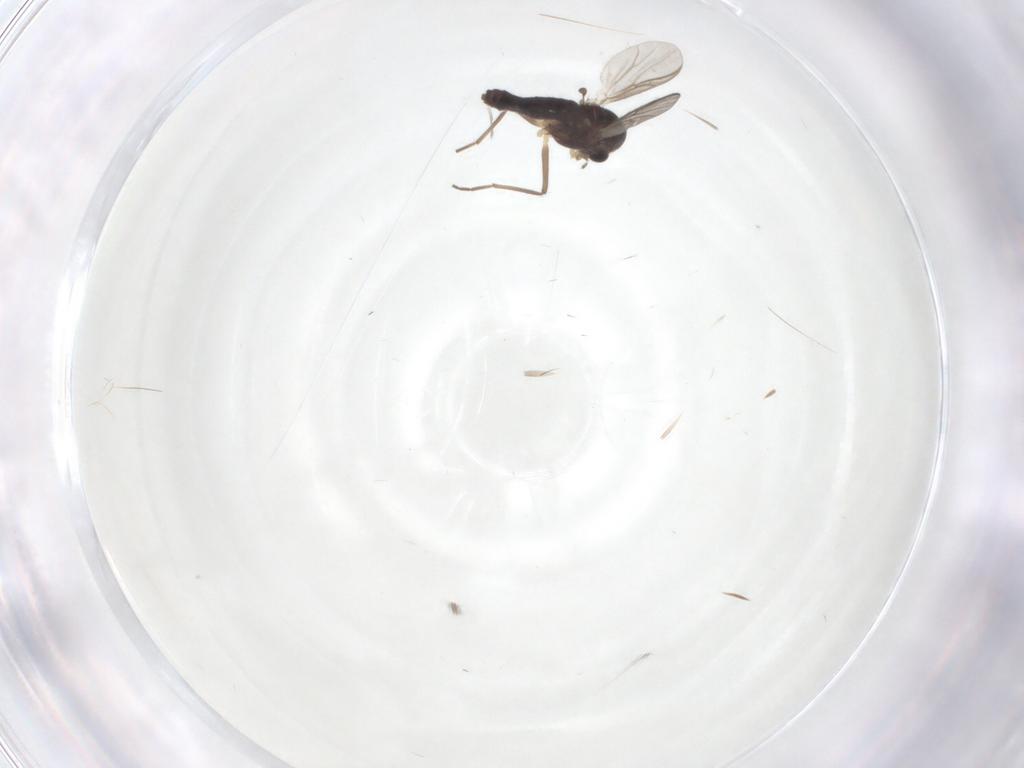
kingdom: Animalia
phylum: Arthropoda
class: Insecta
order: Diptera
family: Chironomidae
